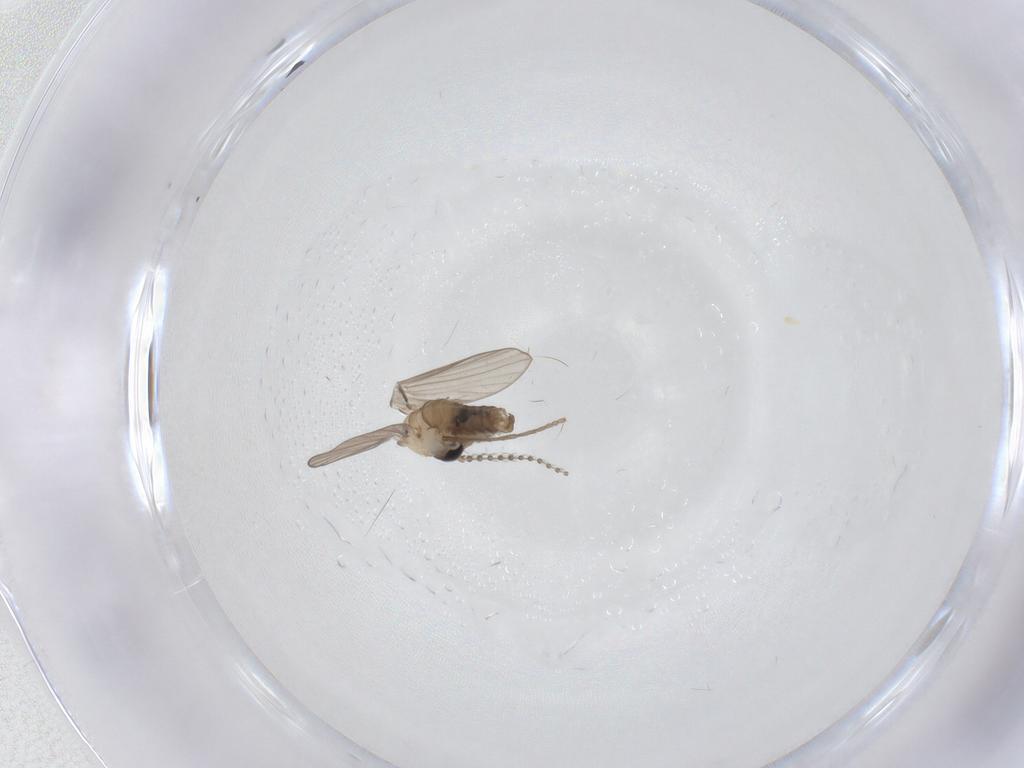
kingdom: Animalia
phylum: Arthropoda
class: Insecta
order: Diptera
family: Psychodidae
